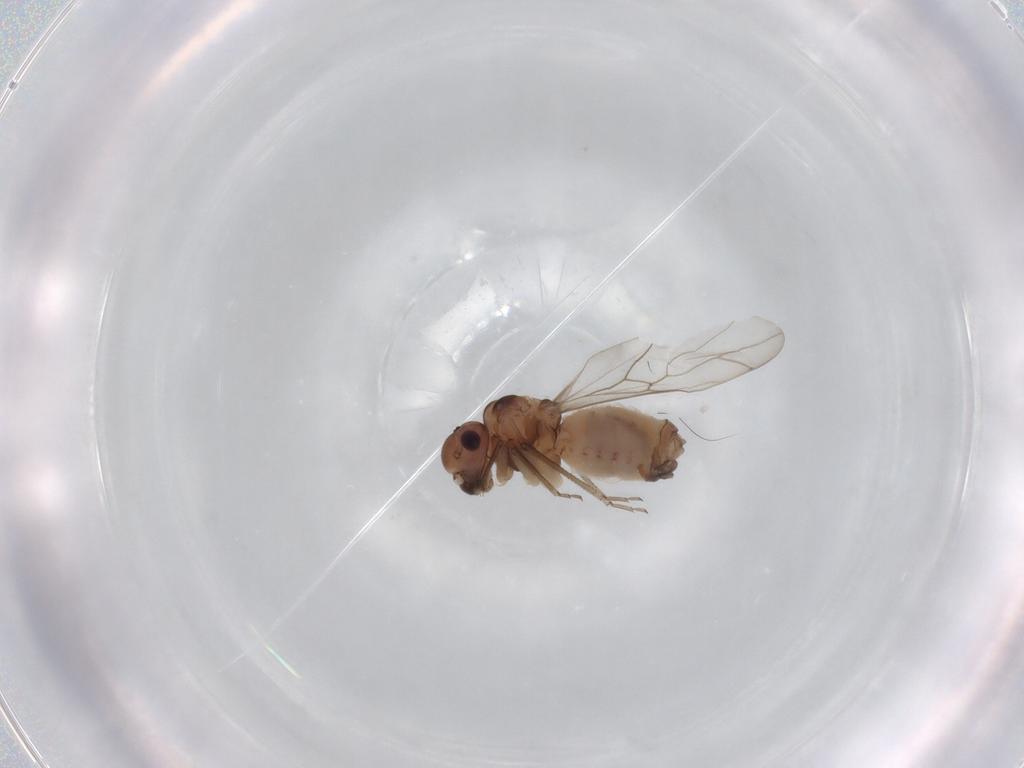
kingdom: Animalia
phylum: Arthropoda
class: Insecta
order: Psocodea
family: Peripsocidae
